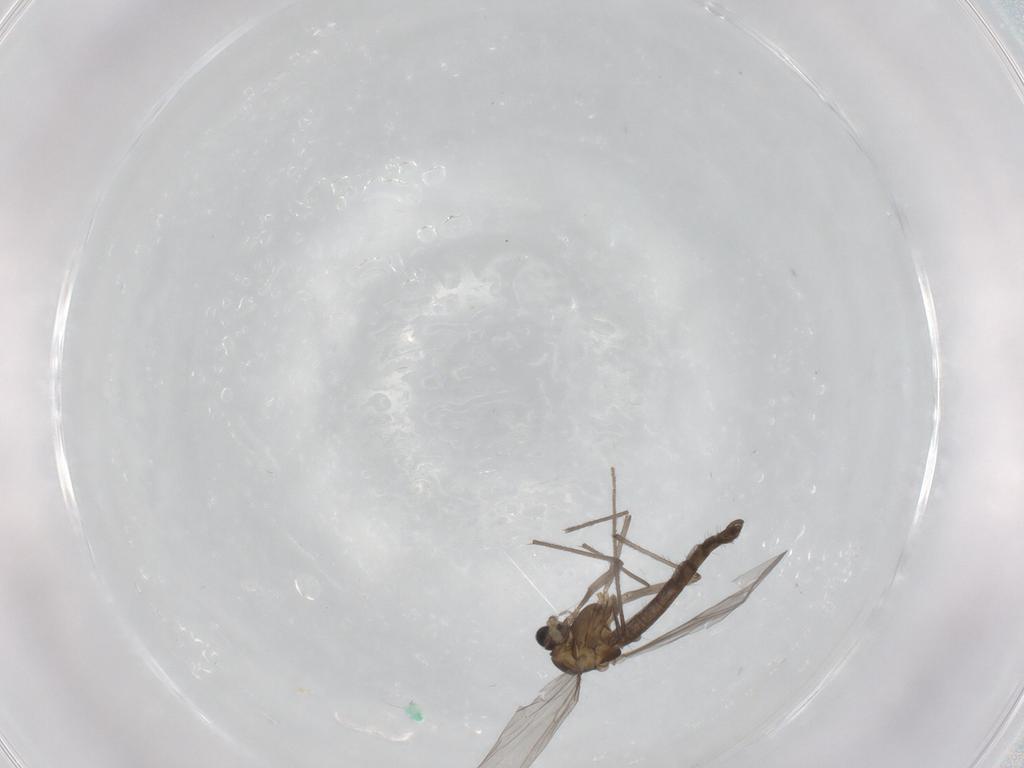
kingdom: Animalia
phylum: Arthropoda
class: Insecta
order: Diptera
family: Chironomidae
